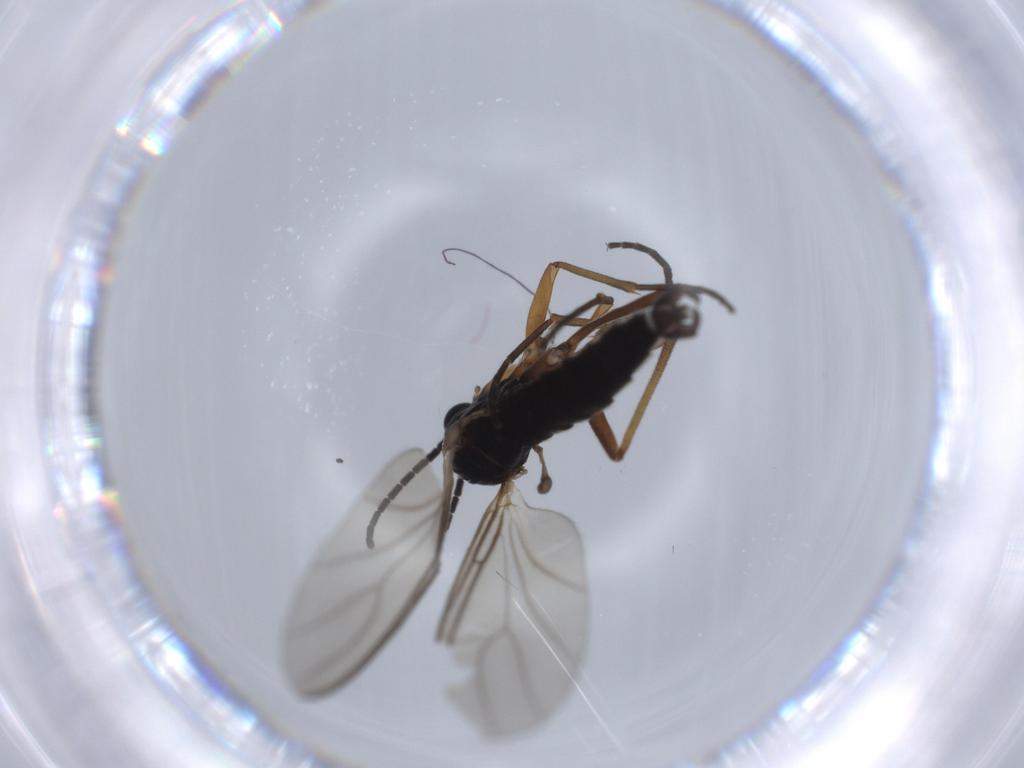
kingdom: Animalia
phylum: Arthropoda
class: Insecta
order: Diptera
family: Sciaridae
